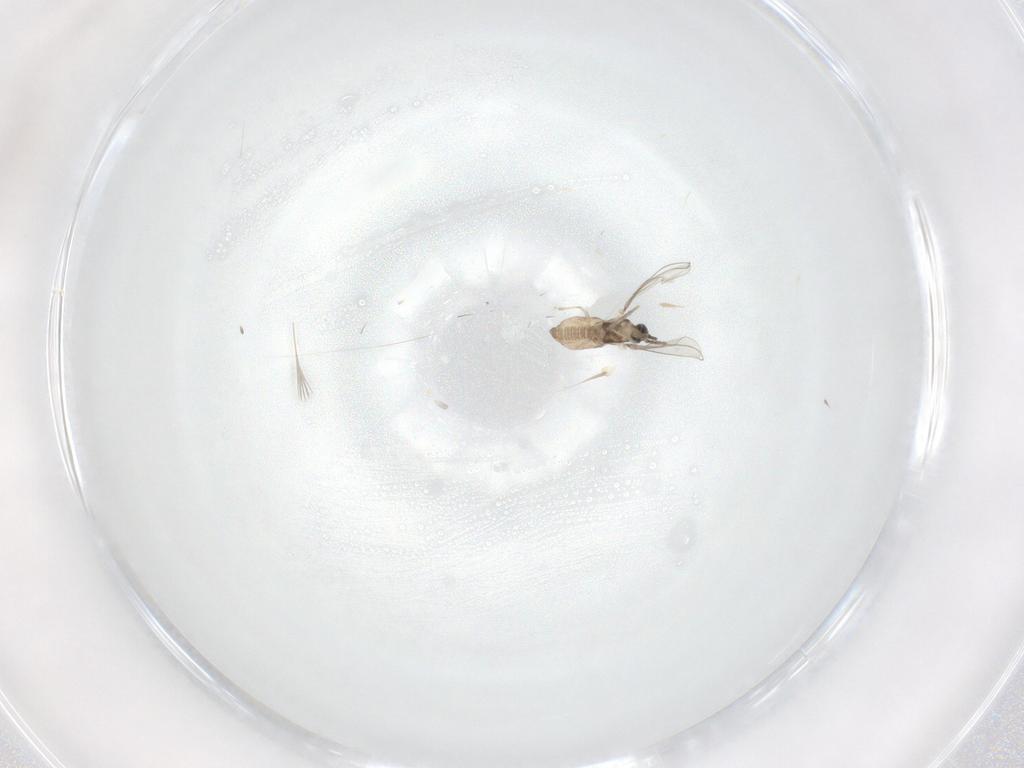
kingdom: Animalia
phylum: Arthropoda
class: Insecta
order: Diptera
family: Cecidomyiidae
